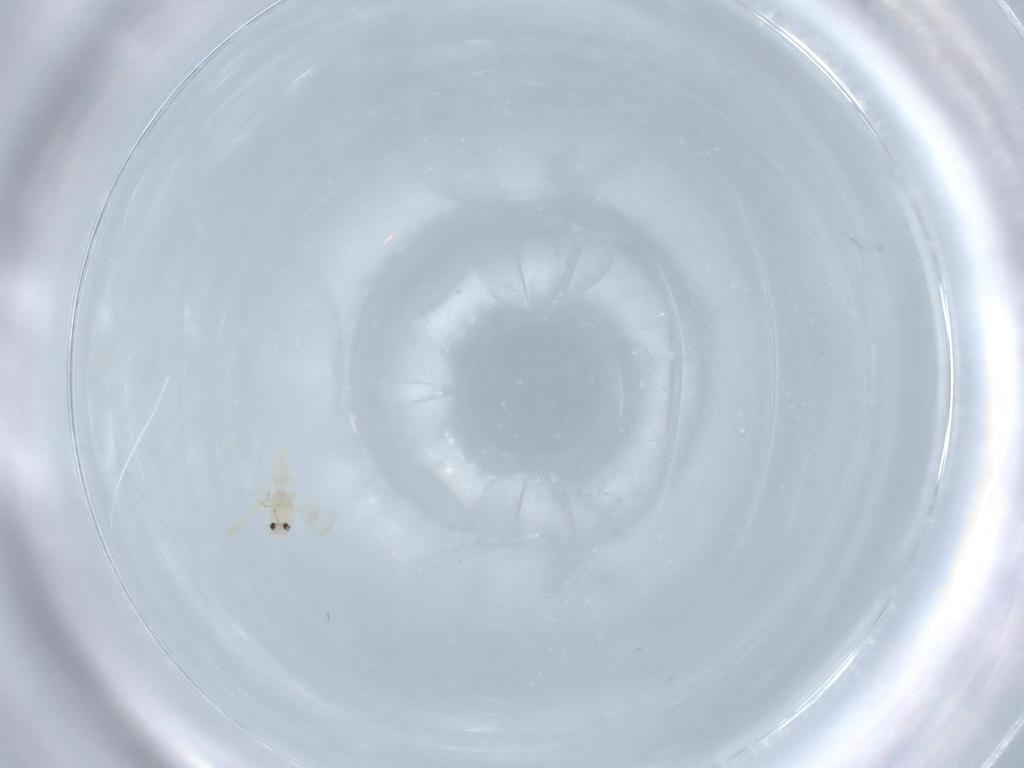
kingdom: Animalia
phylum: Arthropoda
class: Insecta
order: Hemiptera
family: Aleyrodidae
